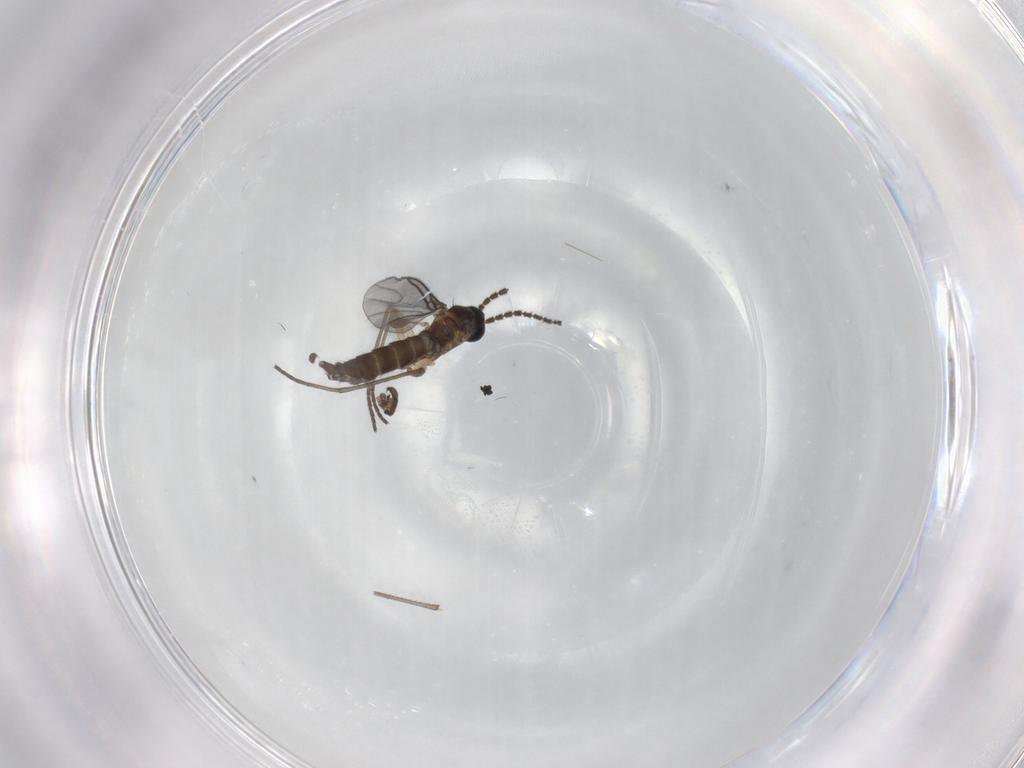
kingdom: Animalia
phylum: Arthropoda
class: Insecta
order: Diptera
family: Sciaridae
